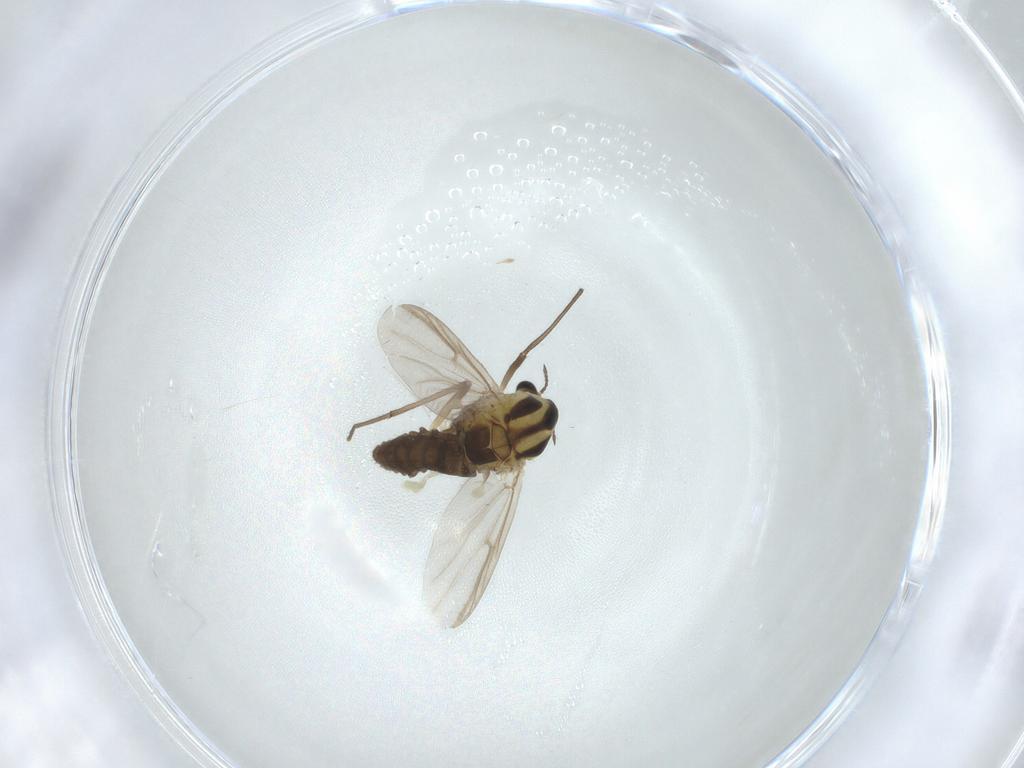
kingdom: Animalia
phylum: Arthropoda
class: Insecta
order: Diptera
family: Chironomidae
